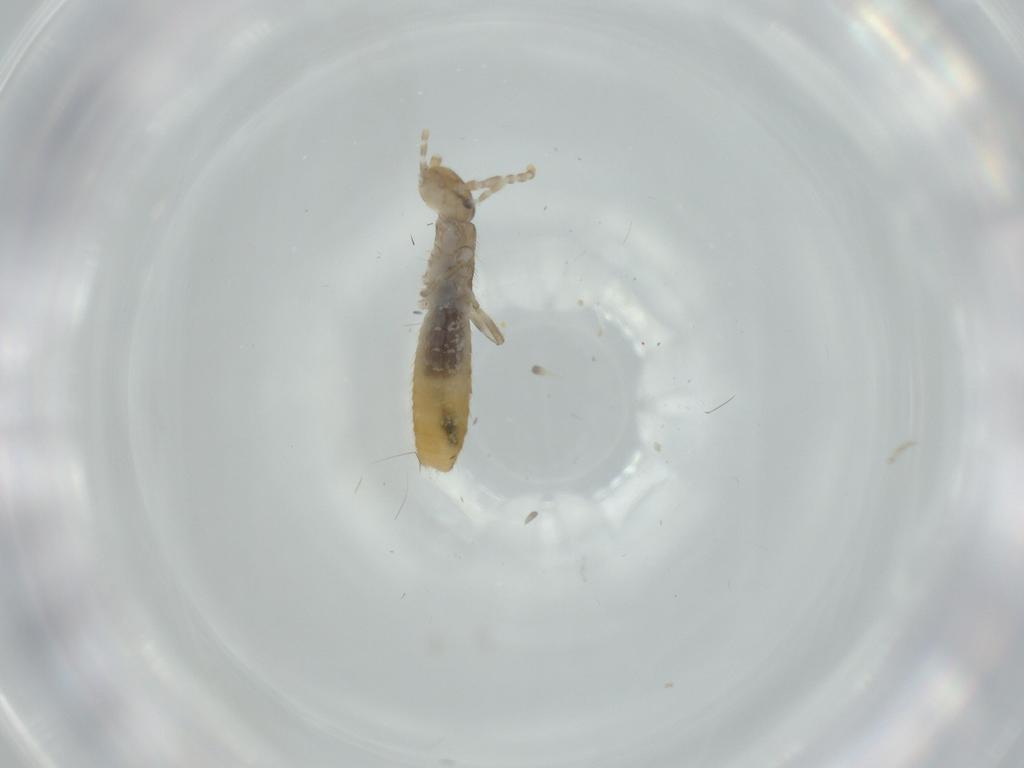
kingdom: Animalia
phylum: Arthropoda
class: Insecta
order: Dermaptera
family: Forficulidae
